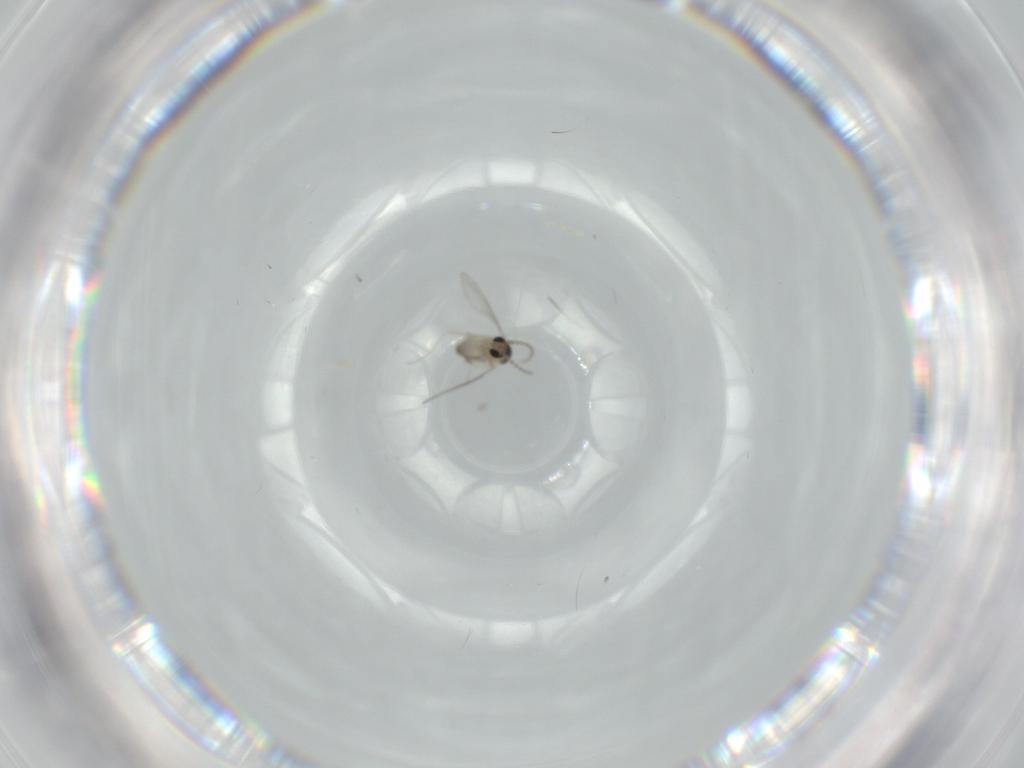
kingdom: Animalia
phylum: Arthropoda
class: Insecta
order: Diptera
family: Cecidomyiidae
